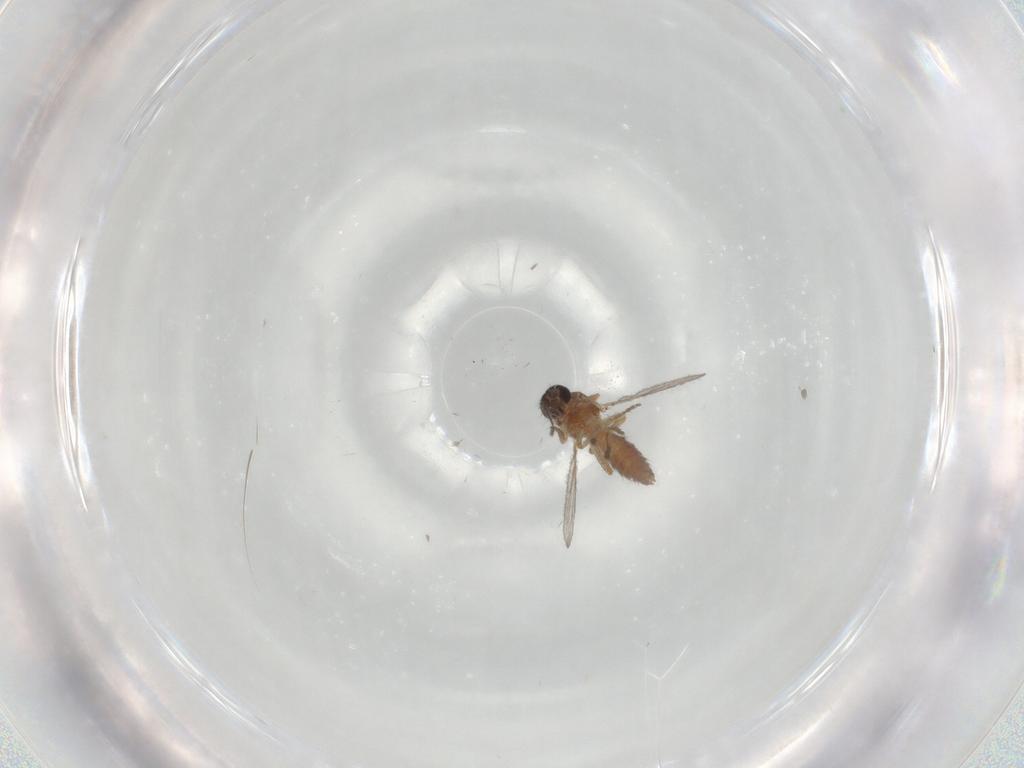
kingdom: Animalia
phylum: Arthropoda
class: Insecta
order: Diptera
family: Ceratopogonidae
